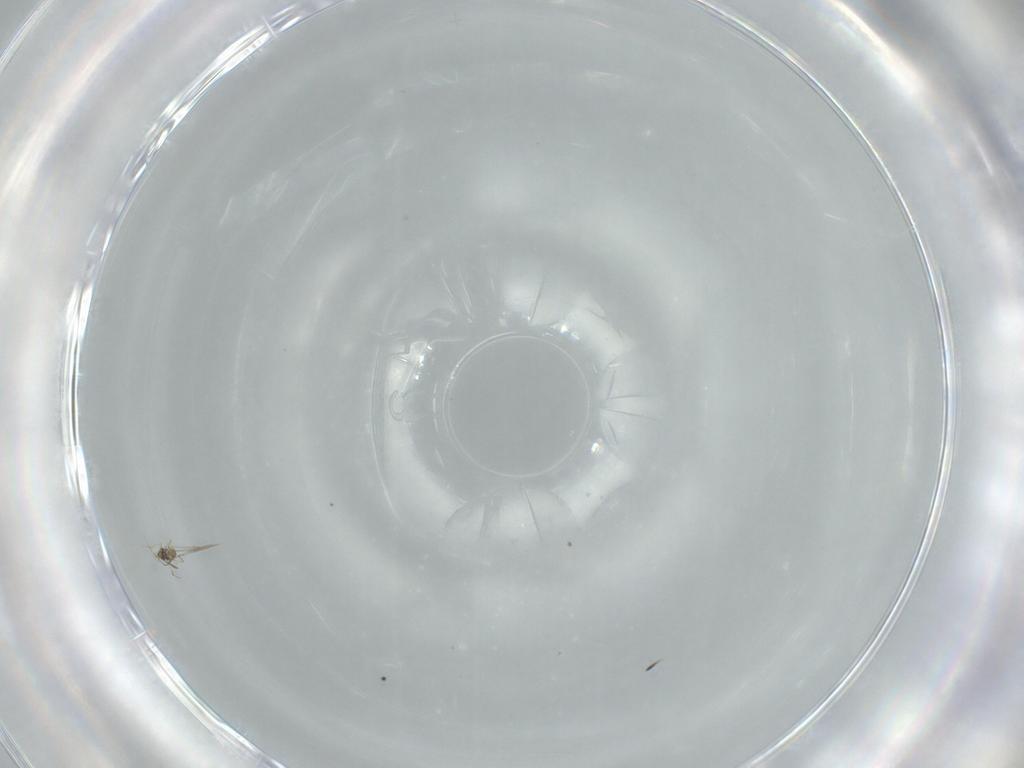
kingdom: Animalia
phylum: Arthropoda
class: Insecta
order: Hymenoptera
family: Mymaridae
